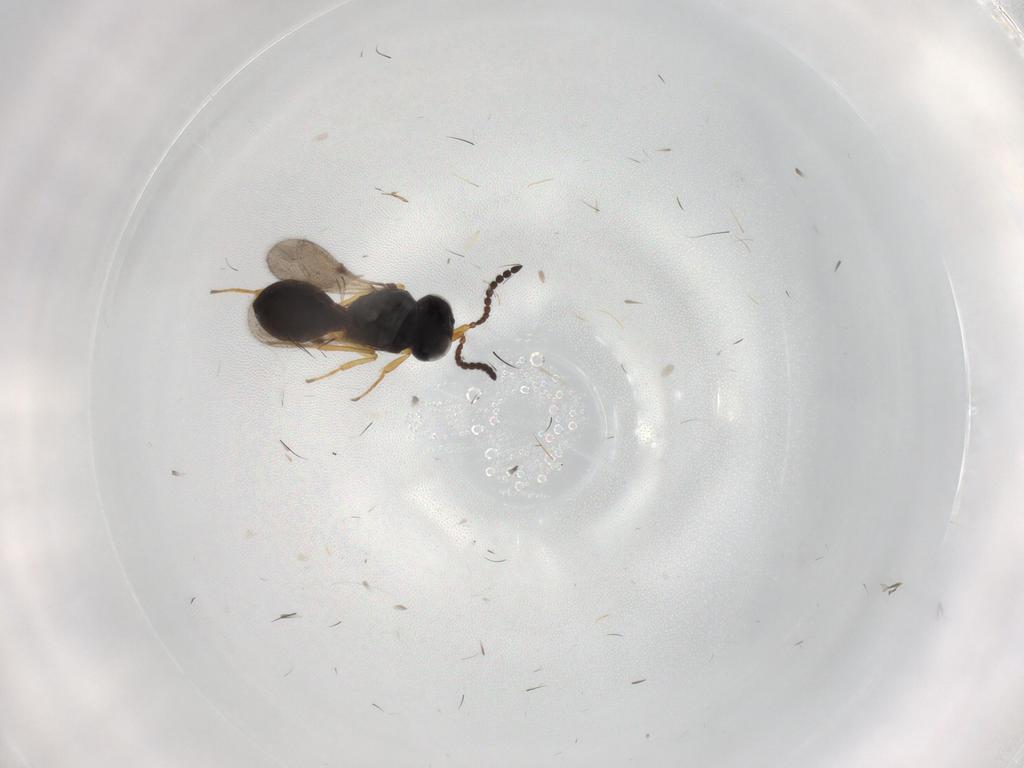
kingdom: Animalia
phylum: Arthropoda
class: Insecta
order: Hymenoptera
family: Scelionidae
